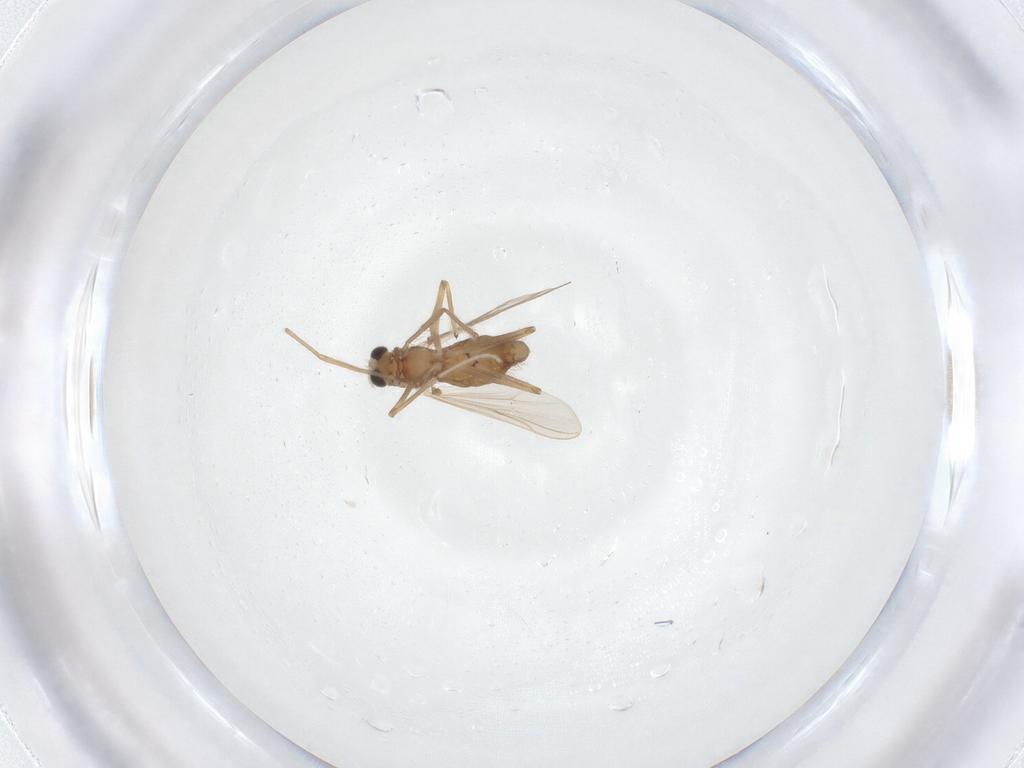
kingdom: Animalia
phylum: Arthropoda
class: Insecta
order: Diptera
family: Chironomidae
